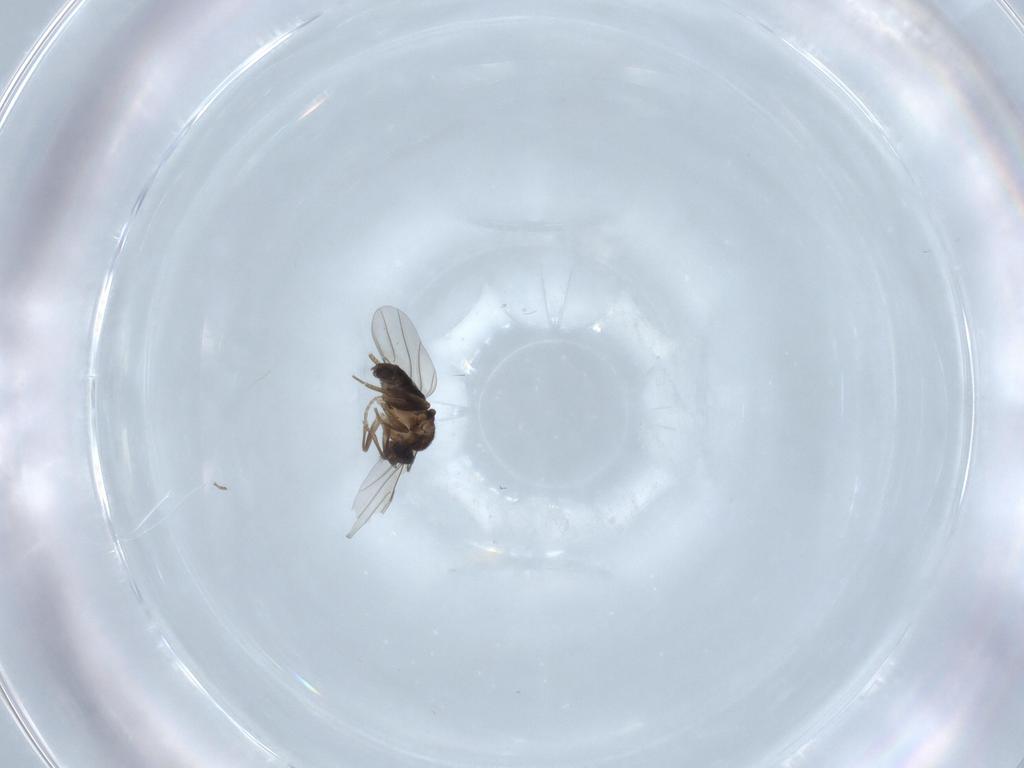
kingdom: Animalia
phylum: Arthropoda
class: Insecta
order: Diptera
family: Phoridae
